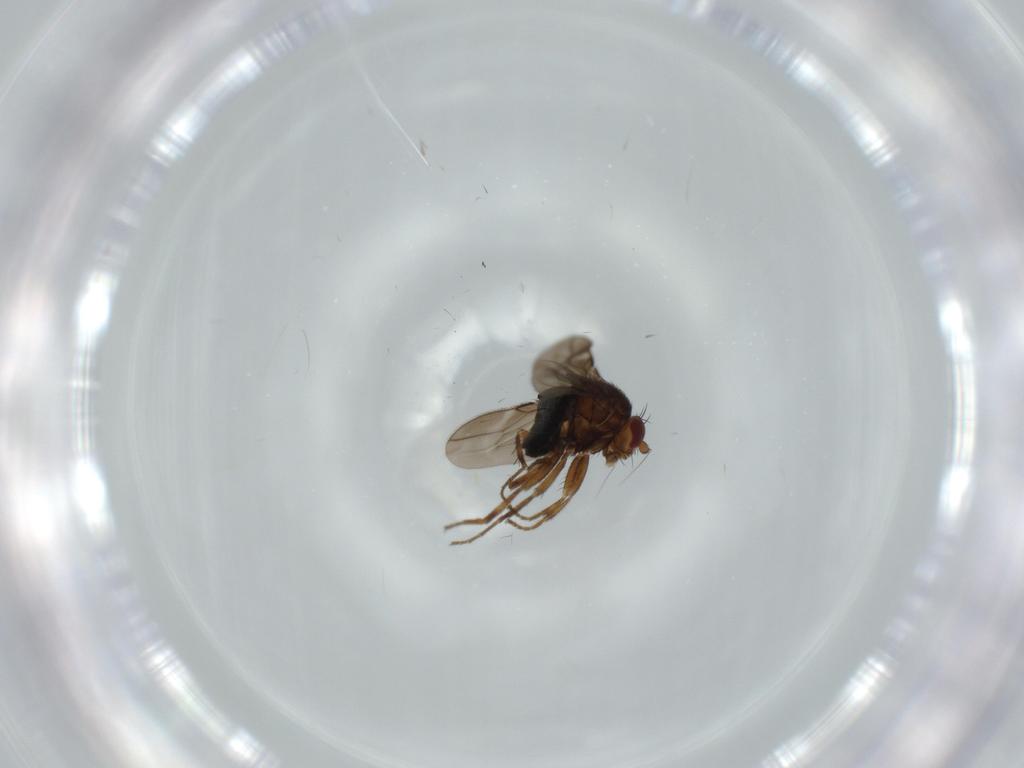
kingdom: Animalia
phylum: Arthropoda
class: Insecta
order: Diptera
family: Sphaeroceridae
